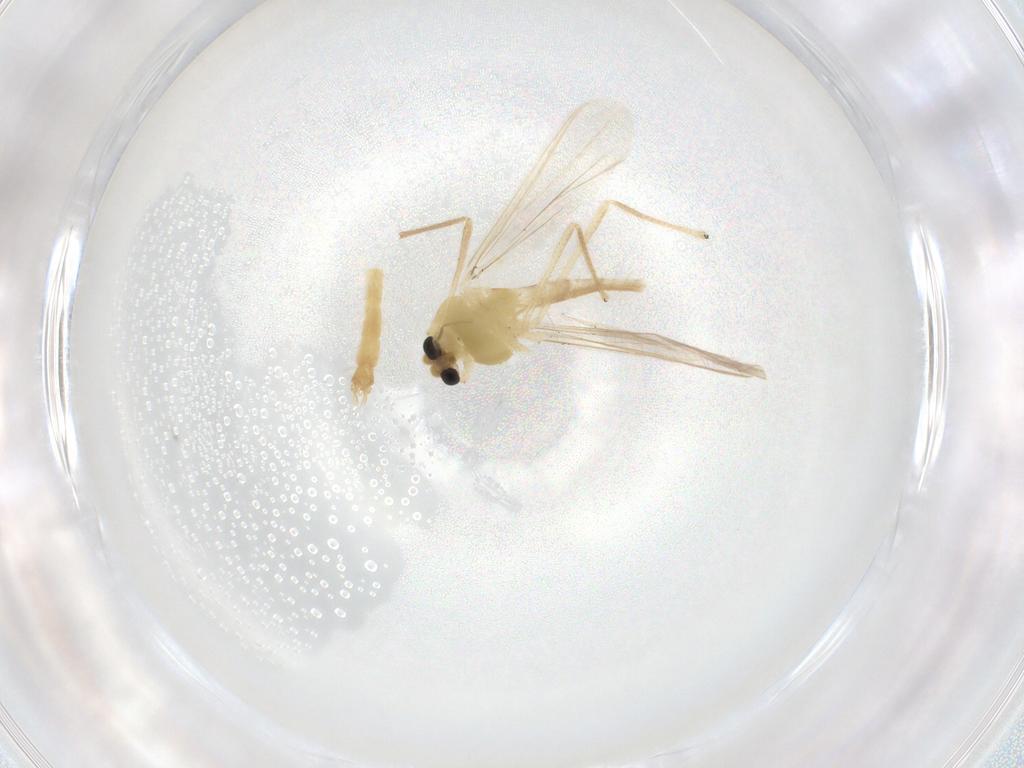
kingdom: Animalia
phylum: Arthropoda
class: Insecta
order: Diptera
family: Chironomidae
